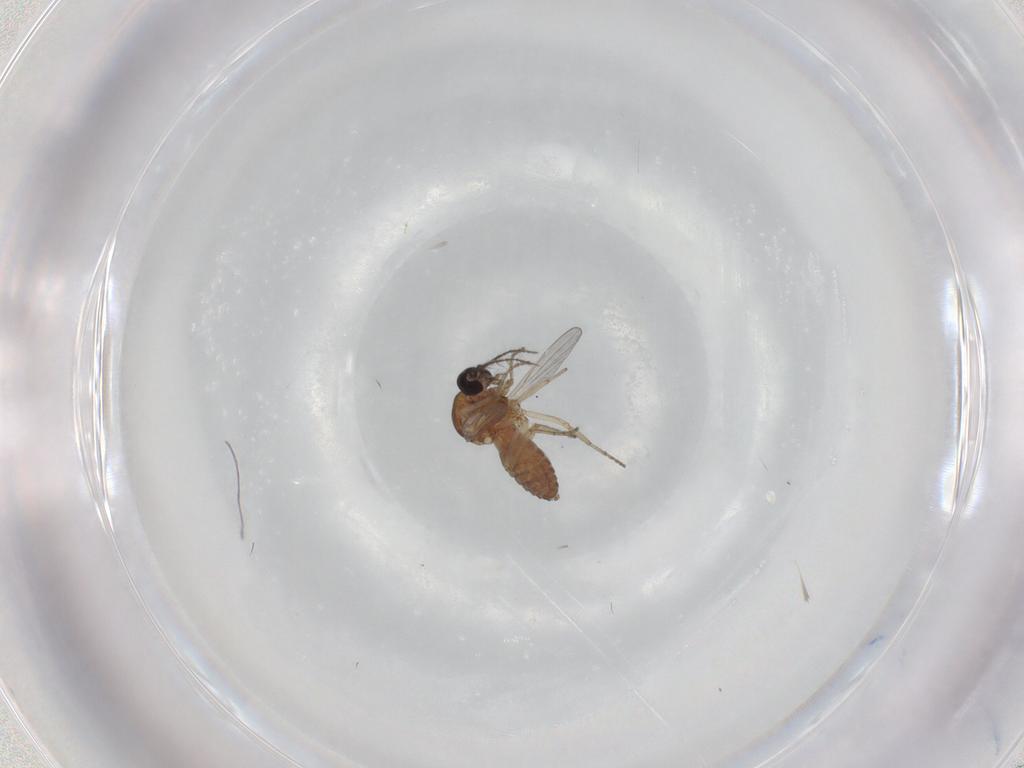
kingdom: Animalia
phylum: Arthropoda
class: Insecta
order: Diptera
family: Ceratopogonidae
